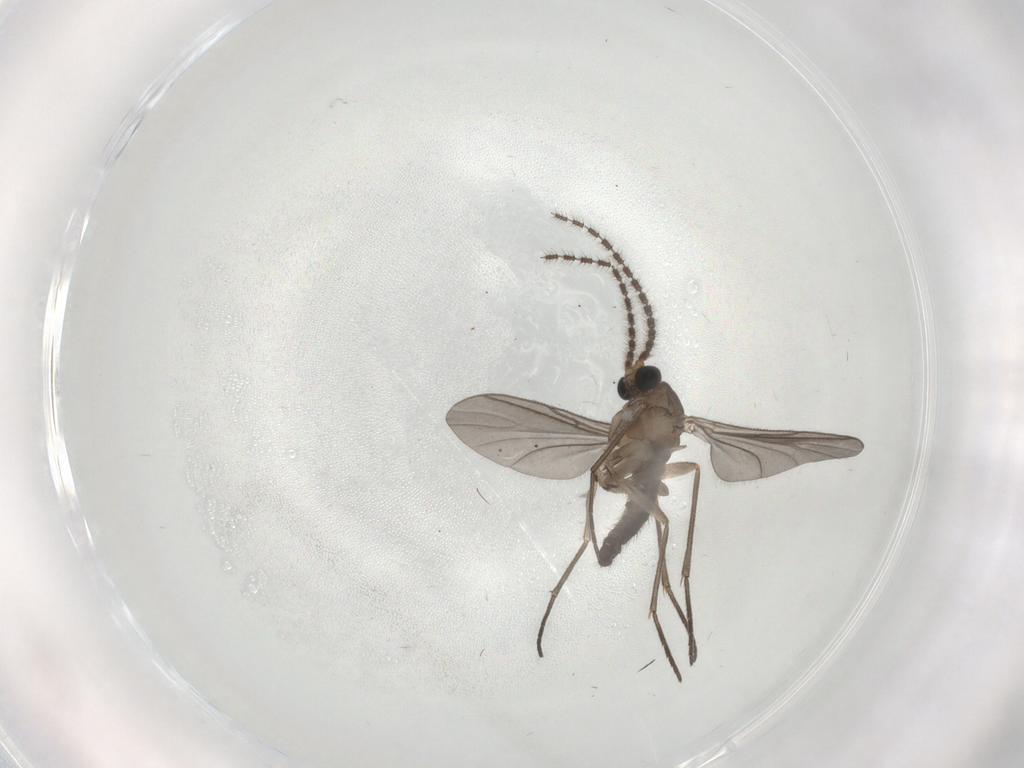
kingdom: Animalia
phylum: Arthropoda
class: Insecta
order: Diptera
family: Sciaridae
